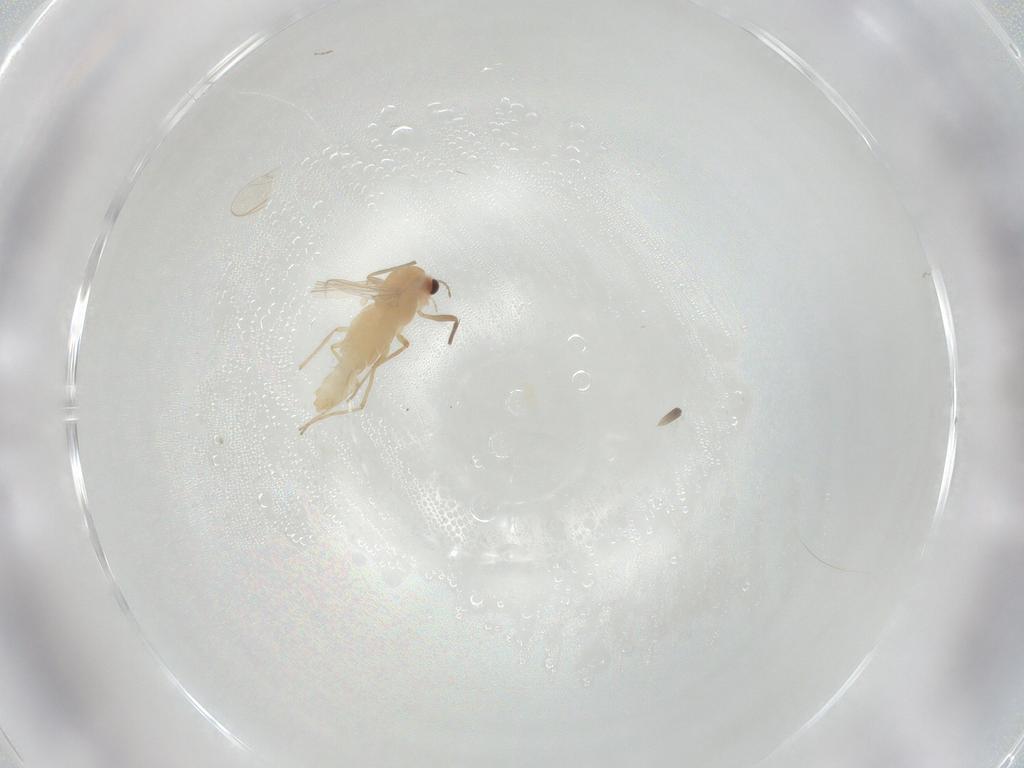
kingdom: Animalia
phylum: Arthropoda
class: Insecta
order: Diptera
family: Chironomidae
